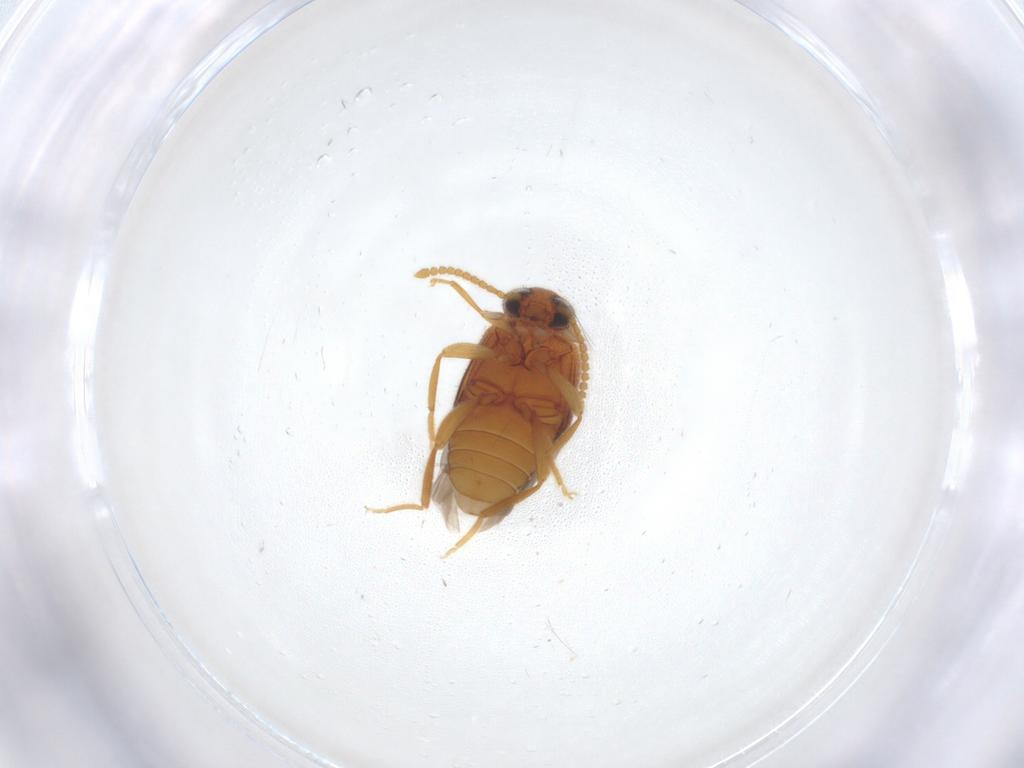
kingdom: Animalia
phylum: Arthropoda
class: Insecta
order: Coleoptera
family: Aderidae
